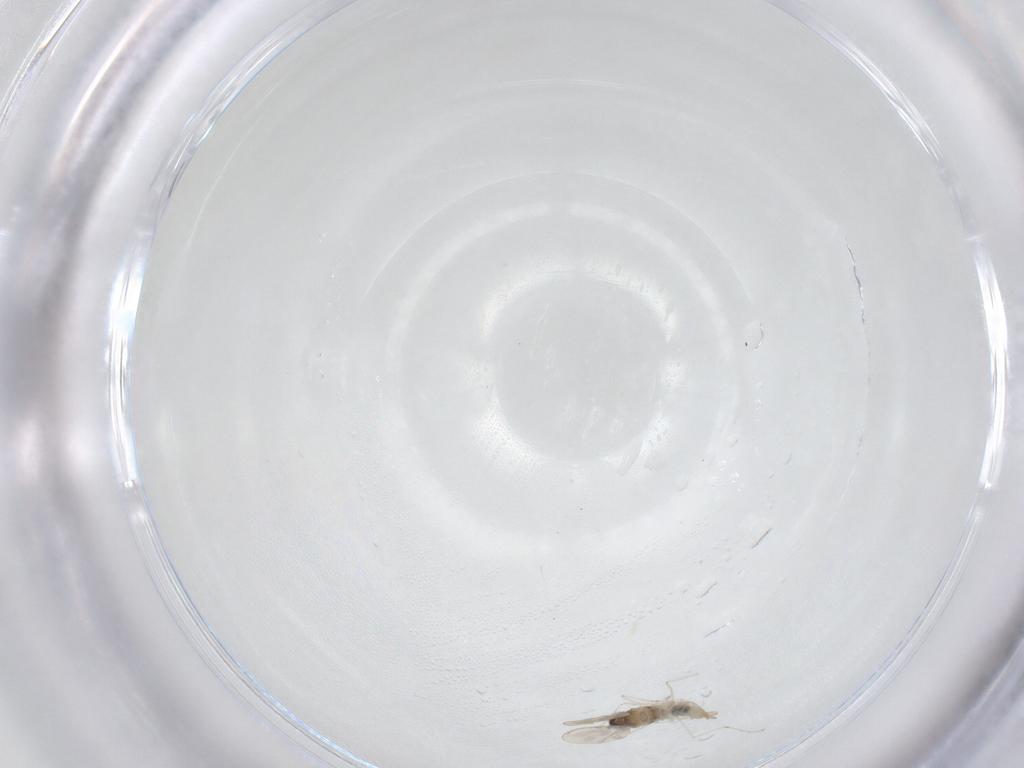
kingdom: Animalia
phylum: Arthropoda
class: Insecta
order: Diptera
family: Cecidomyiidae
